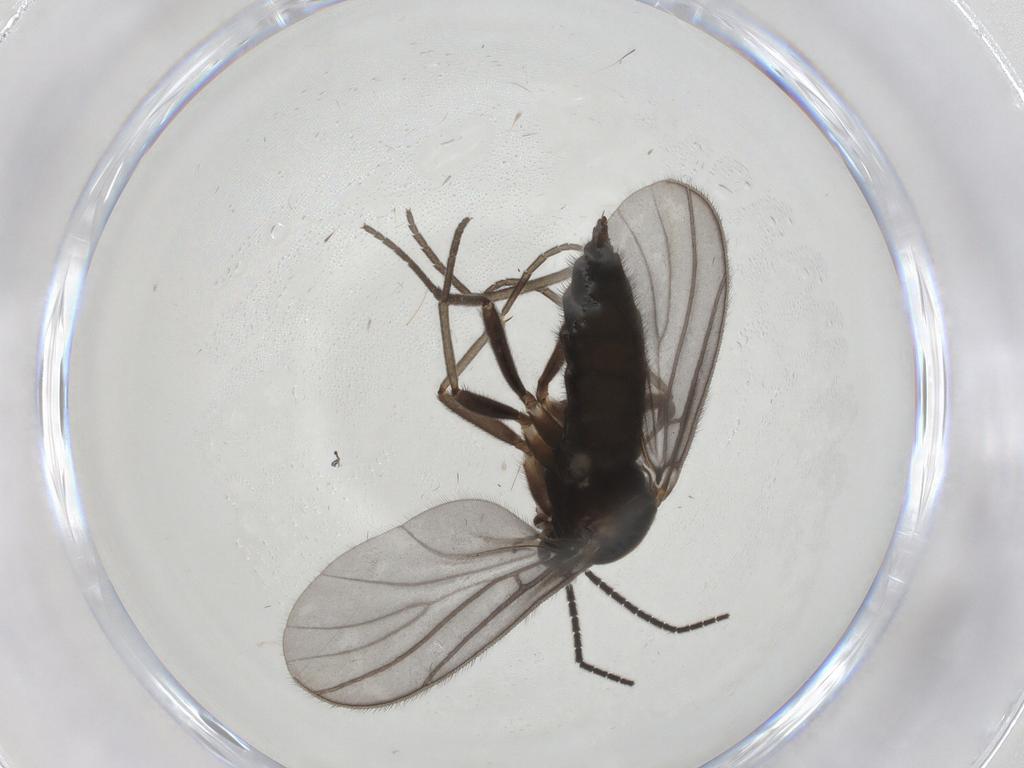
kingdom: Animalia
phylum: Arthropoda
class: Insecta
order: Diptera
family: Sciaridae
